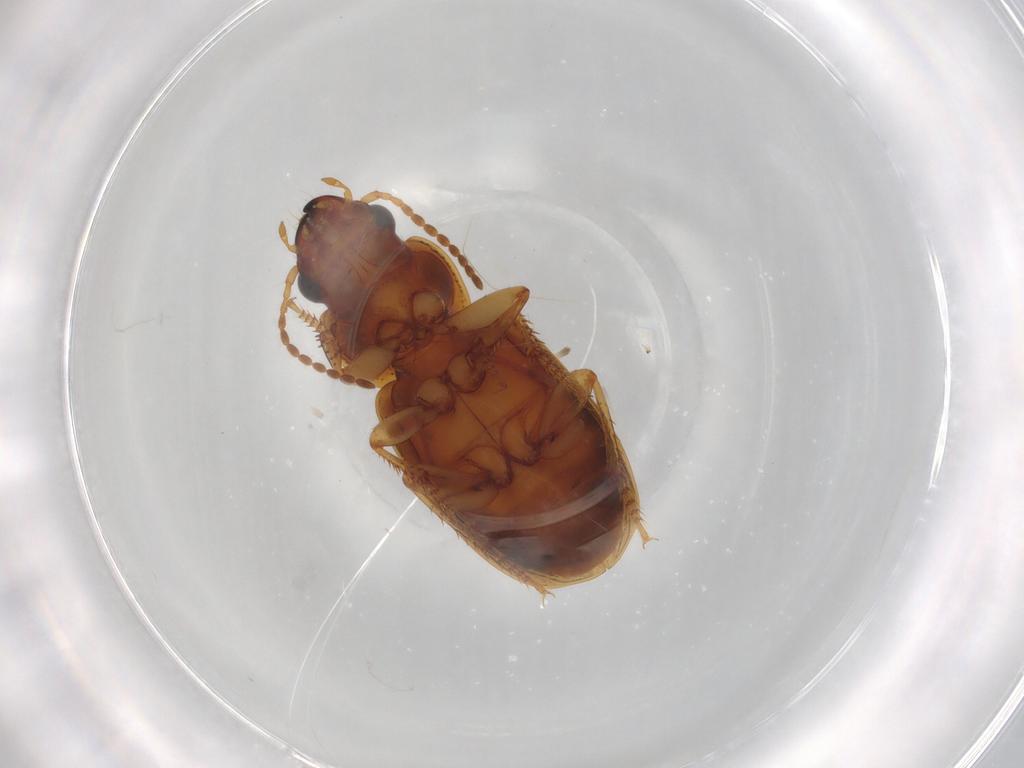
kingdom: Animalia
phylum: Arthropoda
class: Insecta
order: Coleoptera
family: Carabidae
